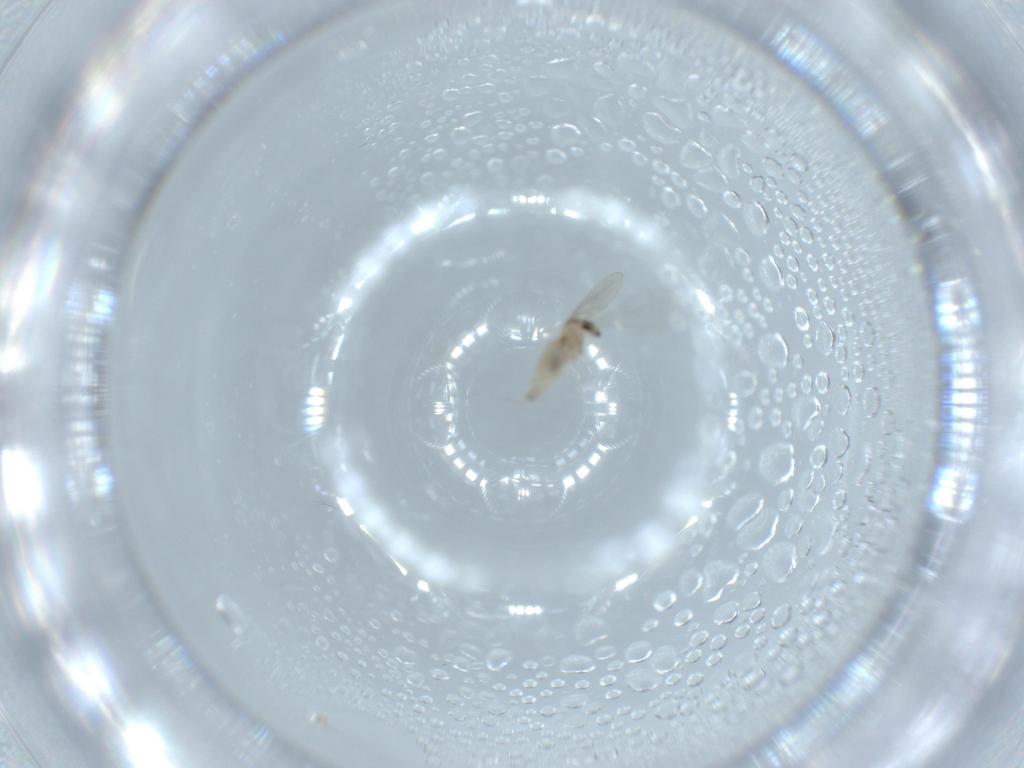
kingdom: Animalia
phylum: Arthropoda
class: Insecta
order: Diptera
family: Cecidomyiidae
